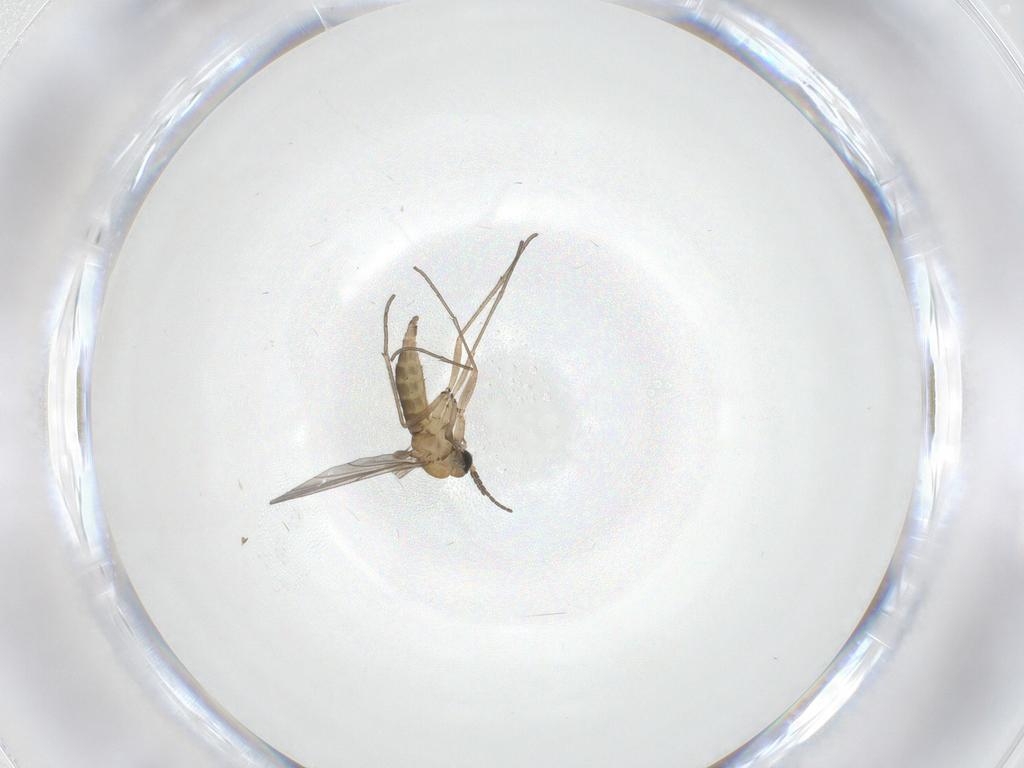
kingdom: Animalia
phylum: Arthropoda
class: Insecta
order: Diptera
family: Sciaridae
